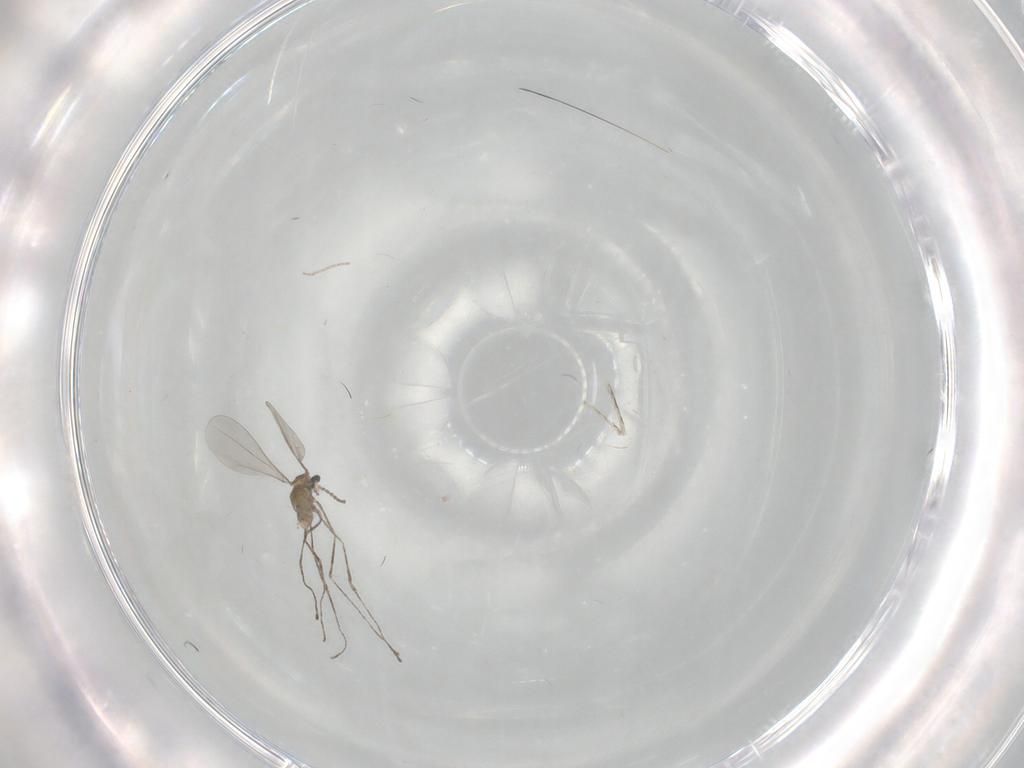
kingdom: Animalia
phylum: Arthropoda
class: Insecta
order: Diptera
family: Cecidomyiidae
